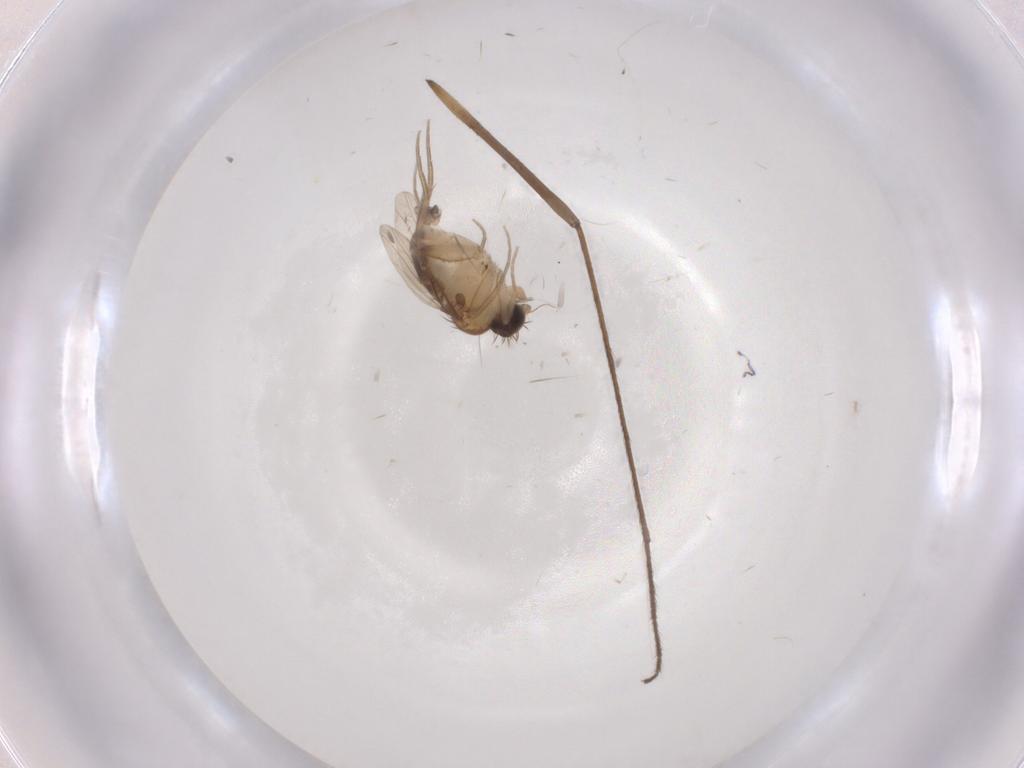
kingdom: Animalia
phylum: Arthropoda
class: Insecta
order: Diptera
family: Phoridae
